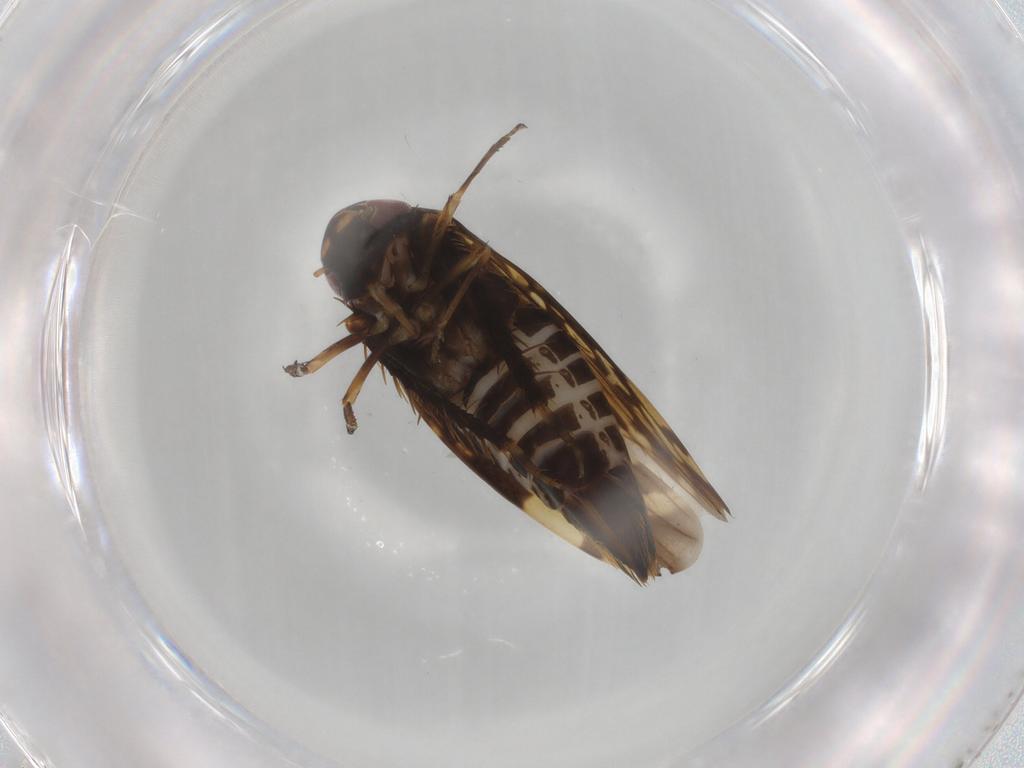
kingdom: Animalia
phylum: Arthropoda
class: Insecta
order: Hemiptera
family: Cicadellidae
